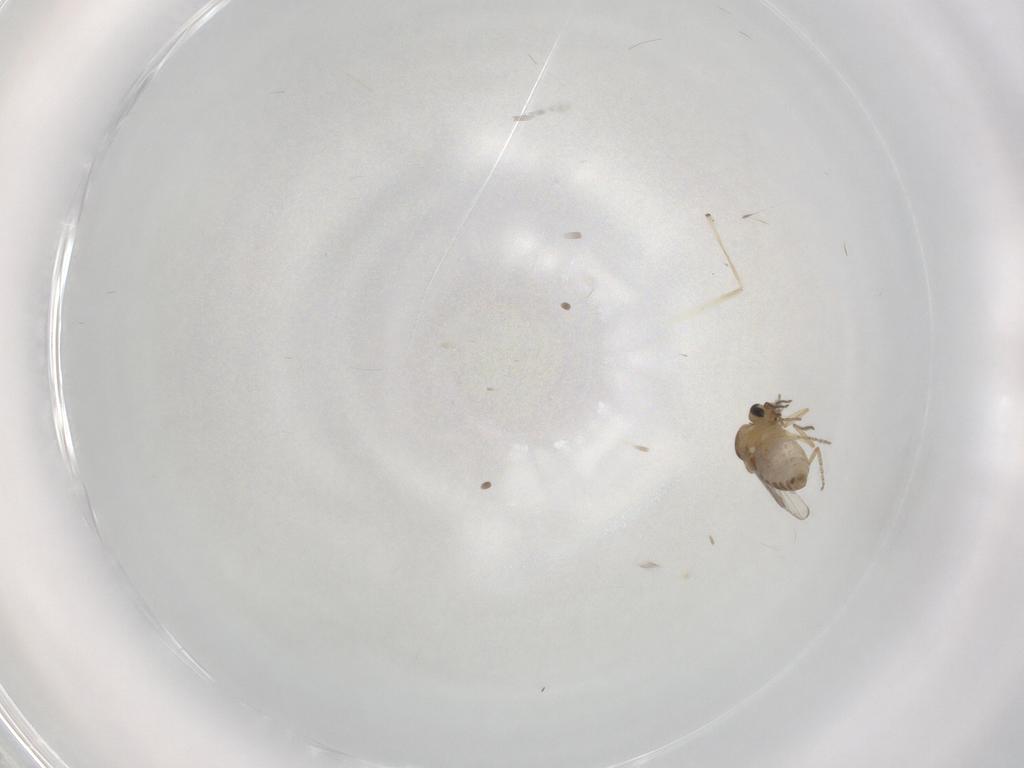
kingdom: Animalia
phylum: Arthropoda
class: Insecta
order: Diptera
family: Ceratopogonidae
